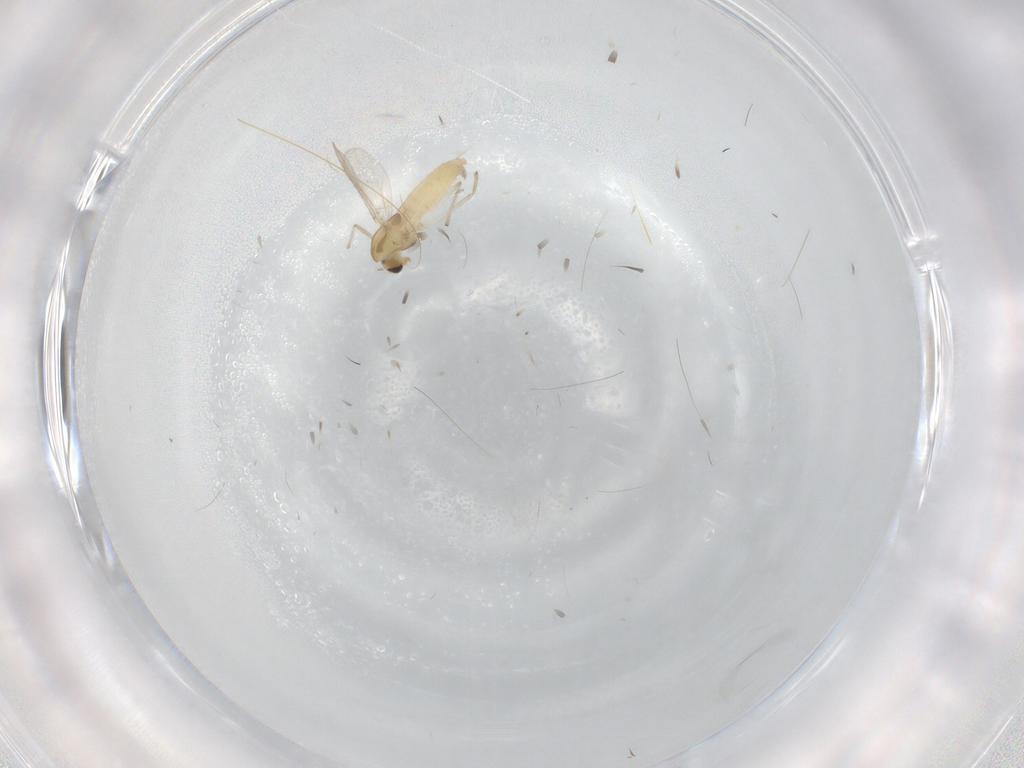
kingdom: Animalia
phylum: Arthropoda
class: Insecta
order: Diptera
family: Chironomidae
